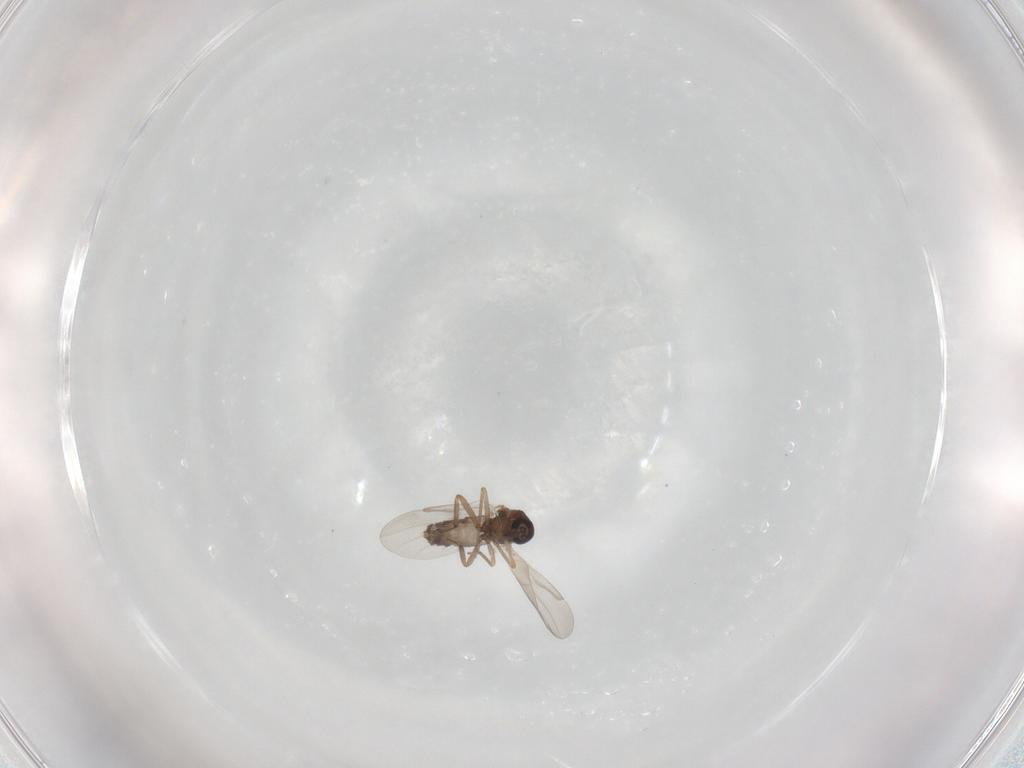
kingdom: Animalia
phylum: Arthropoda
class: Insecta
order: Diptera
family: Ceratopogonidae
